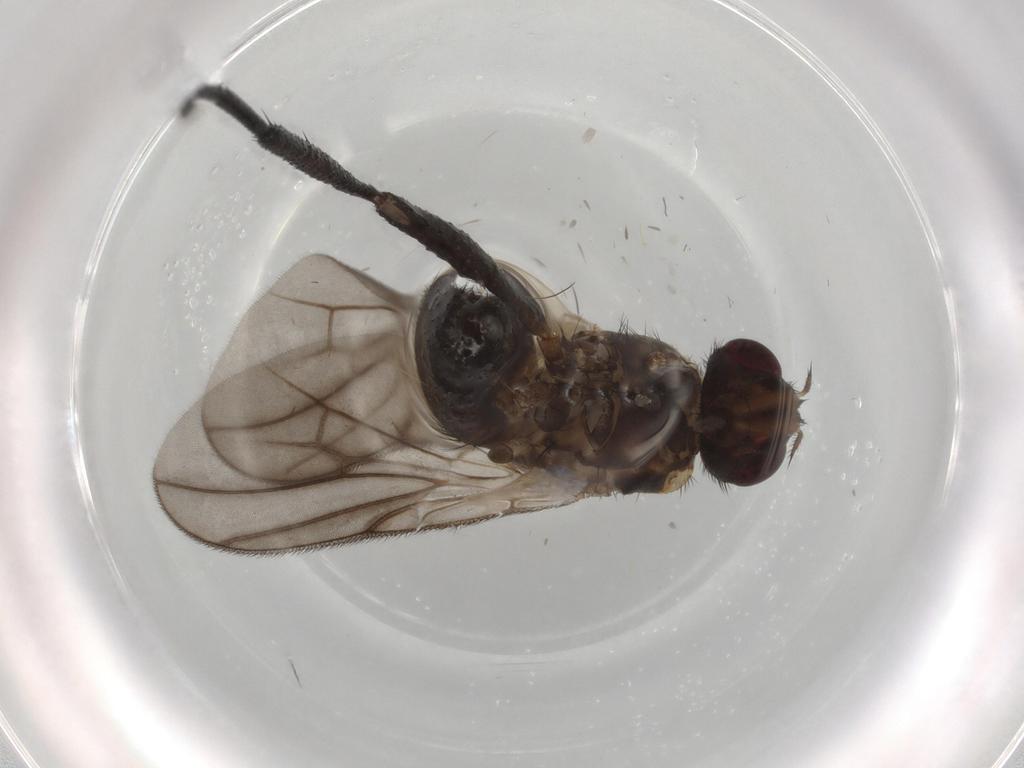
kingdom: Animalia
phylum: Arthropoda
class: Insecta
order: Diptera
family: Calliphoridae
